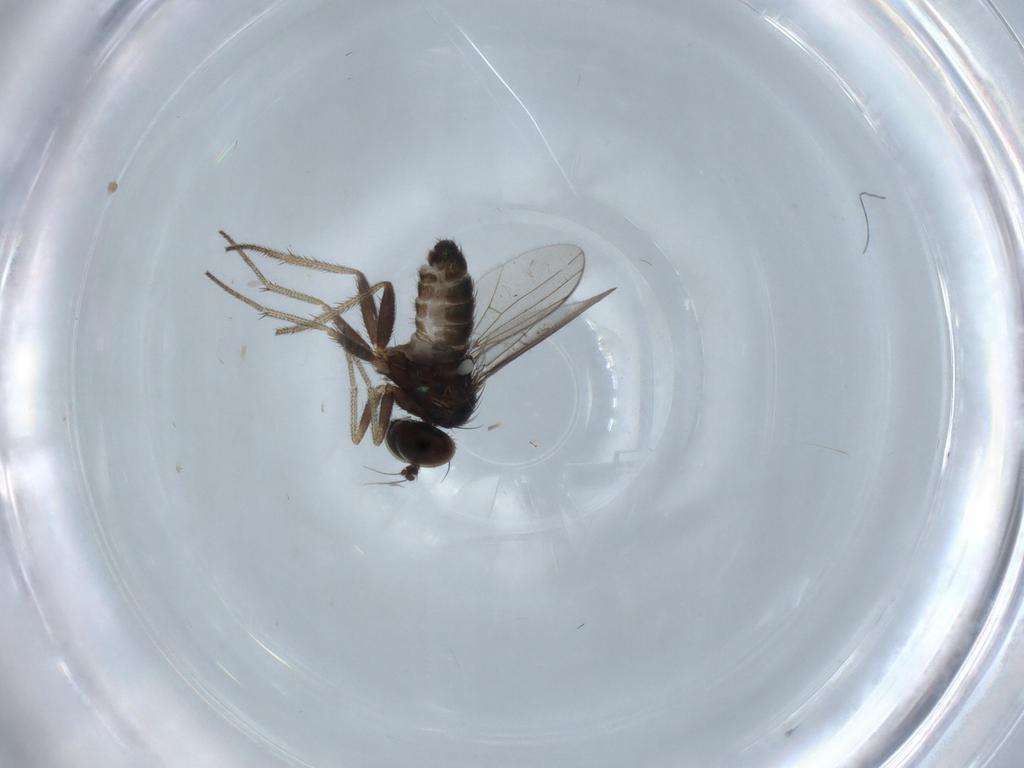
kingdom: Animalia
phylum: Arthropoda
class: Insecta
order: Diptera
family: Dolichopodidae
